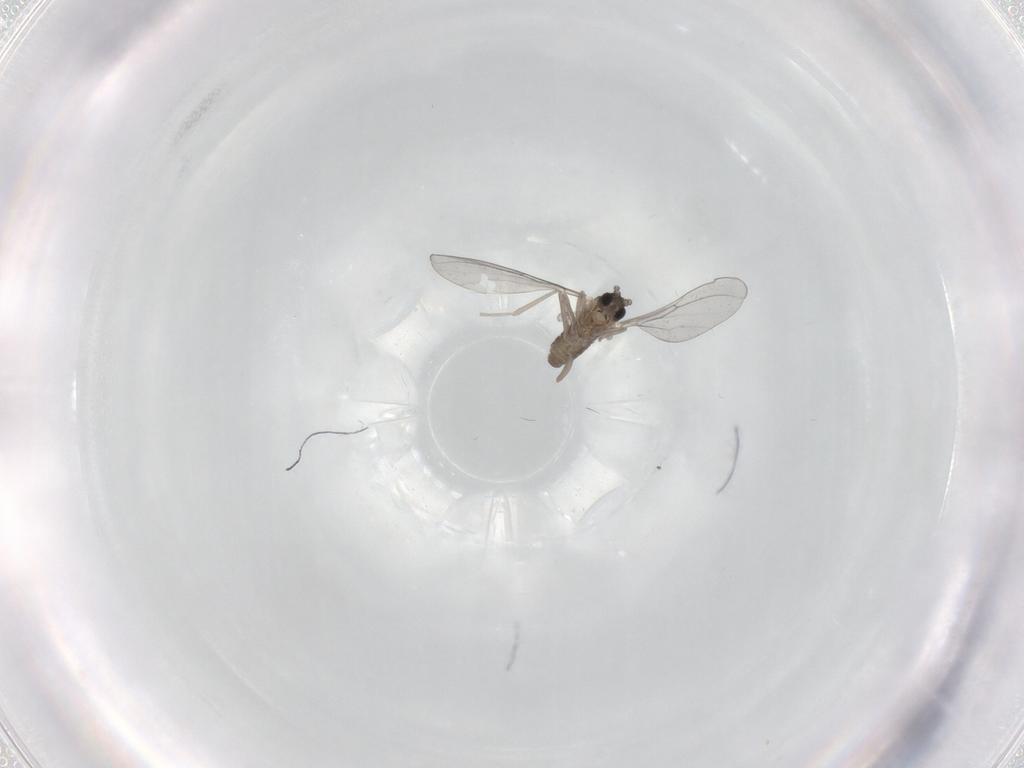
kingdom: Animalia
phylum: Arthropoda
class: Insecta
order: Diptera
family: Cecidomyiidae
